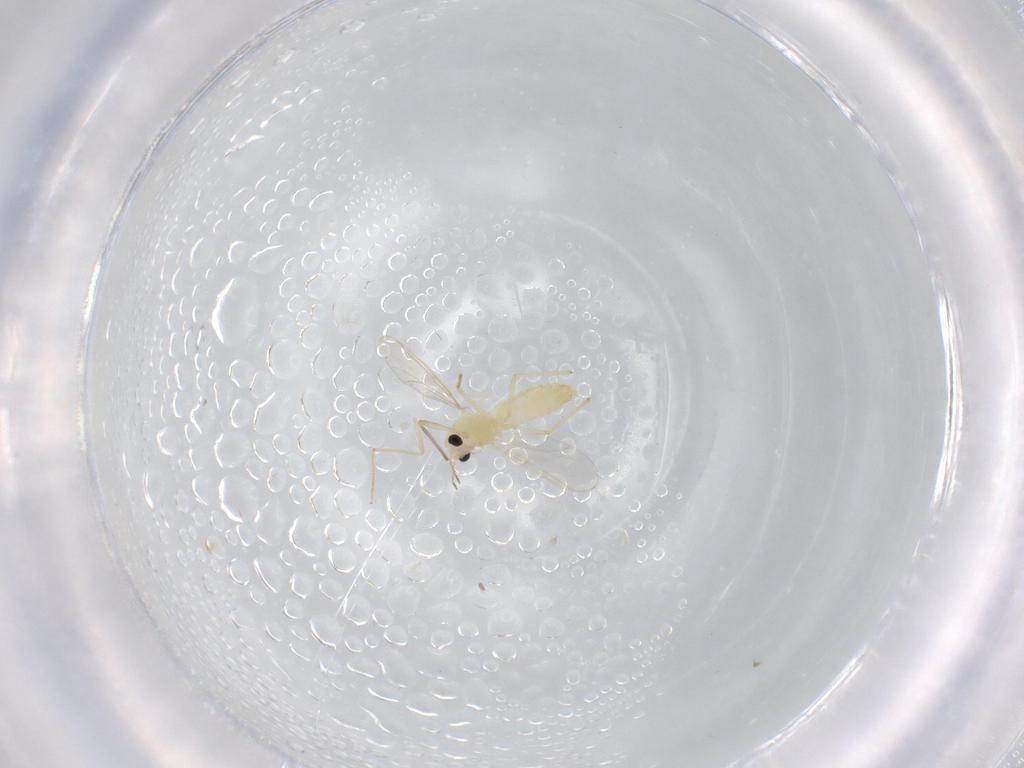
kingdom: Animalia
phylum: Arthropoda
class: Insecta
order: Diptera
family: Chironomidae
